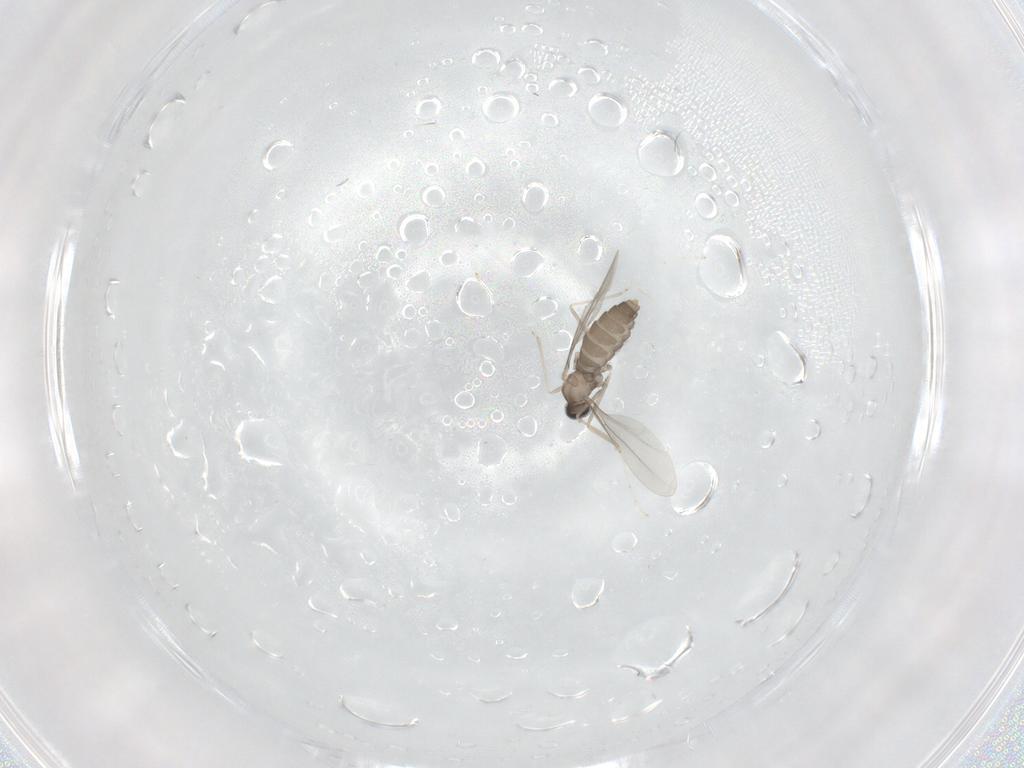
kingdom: Animalia
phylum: Arthropoda
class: Insecta
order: Diptera
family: Cecidomyiidae
